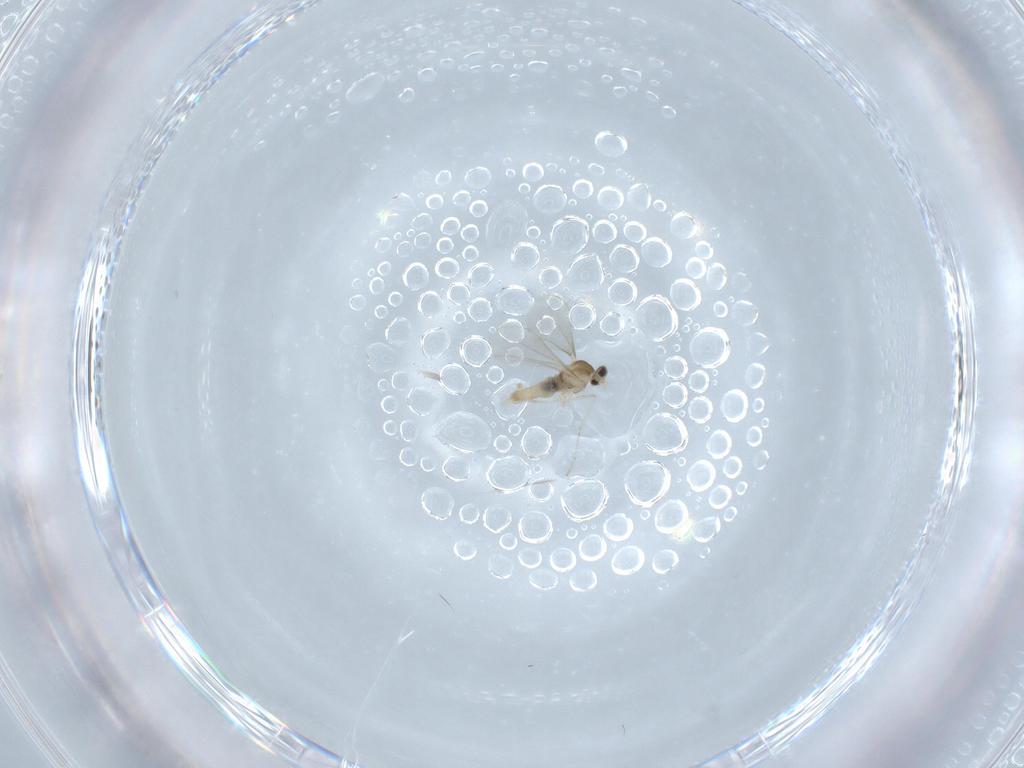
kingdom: Animalia
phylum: Arthropoda
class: Insecta
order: Diptera
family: Cecidomyiidae
